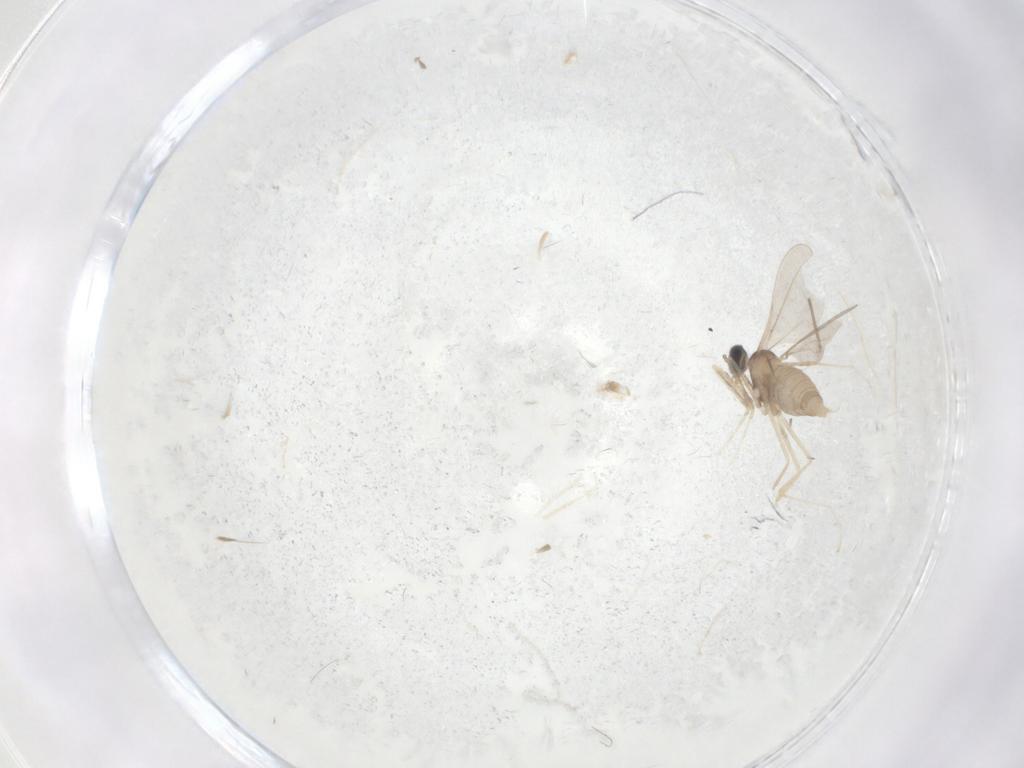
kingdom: Animalia
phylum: Arthropoda
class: Insecta
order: Diptera
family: Cecidomyiidae
